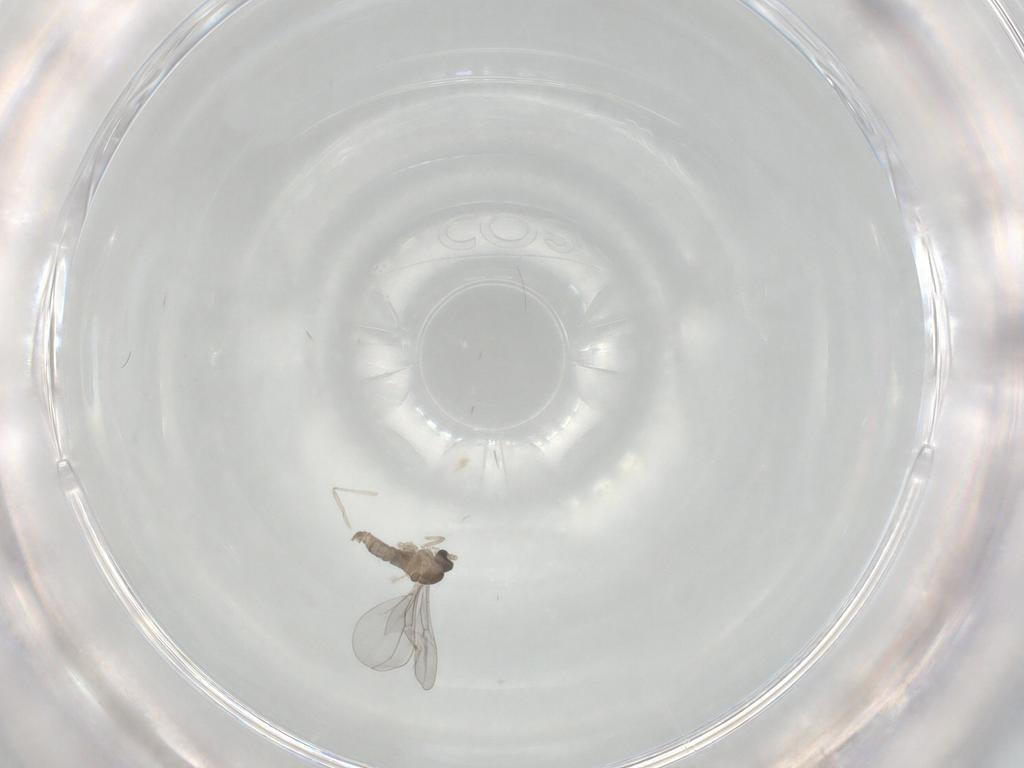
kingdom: Animalia
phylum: Arthropoda
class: Insecta
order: Diptera
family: Cecidomyiidae
